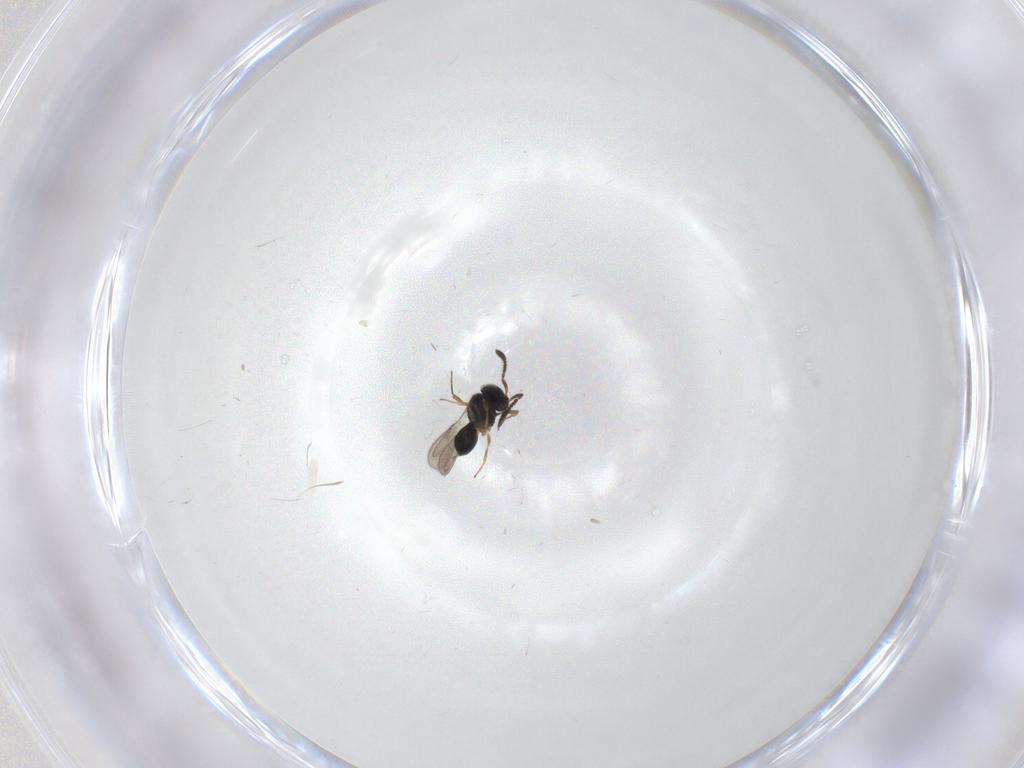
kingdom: Animalia
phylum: Arthropoda
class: Insecta
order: Hymenoptera
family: Scelionidae
